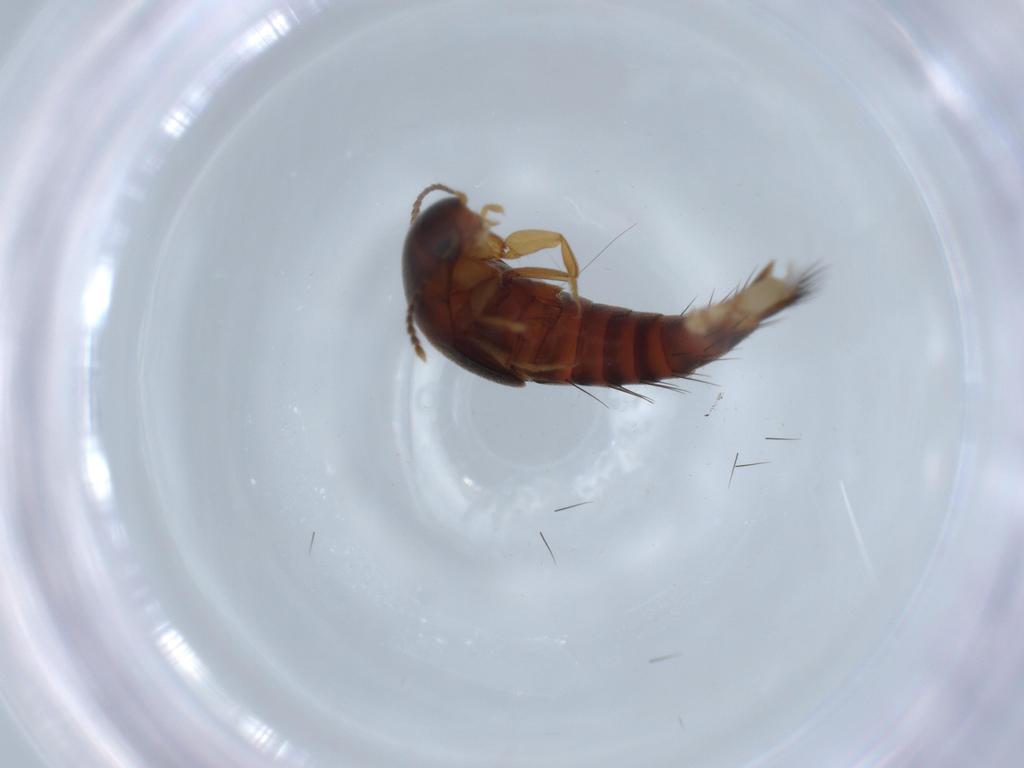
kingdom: Animalia
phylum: Arthropoda
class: Insecta
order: Coleoptera
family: Staphylinidae
